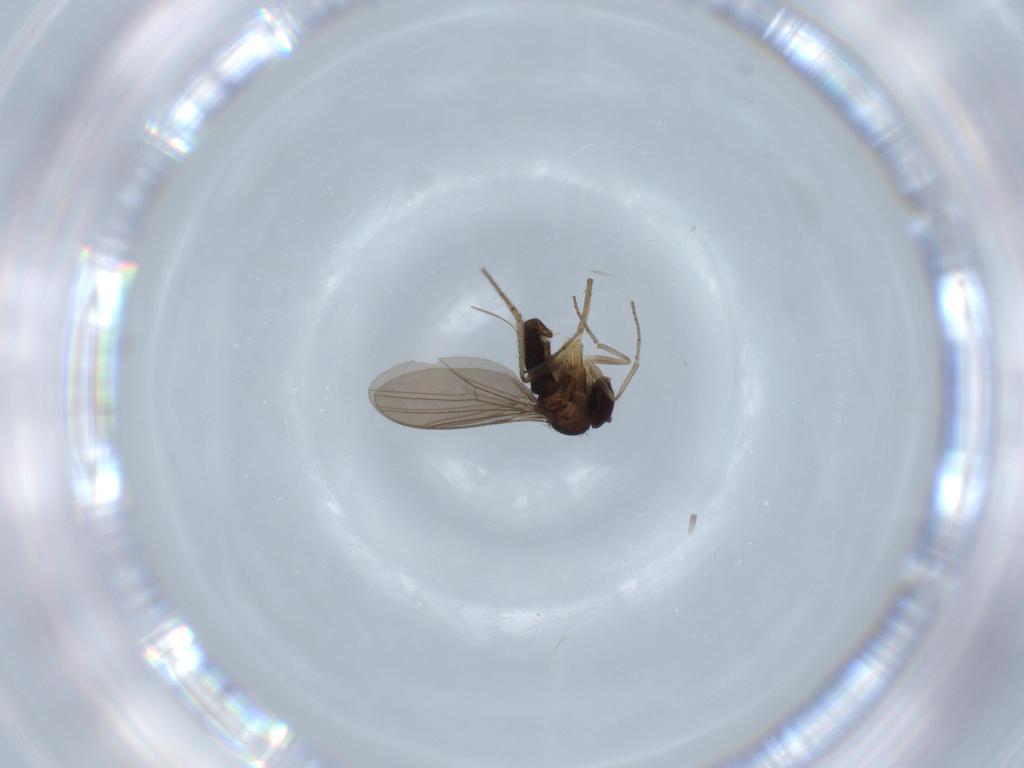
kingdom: Animalia
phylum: Arthropoda
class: Insecta
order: Diptera
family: Dolichopodidae
